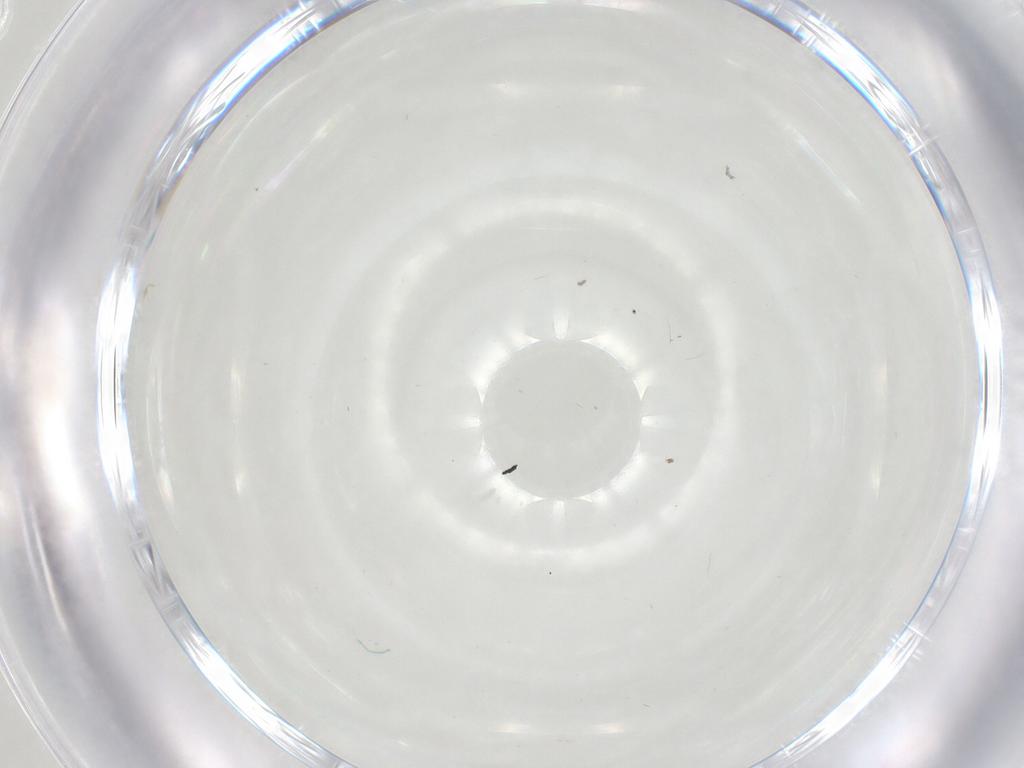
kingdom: Animalia
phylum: Arthropoda
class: Insecta
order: Diptera
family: Cecidomyiidae
